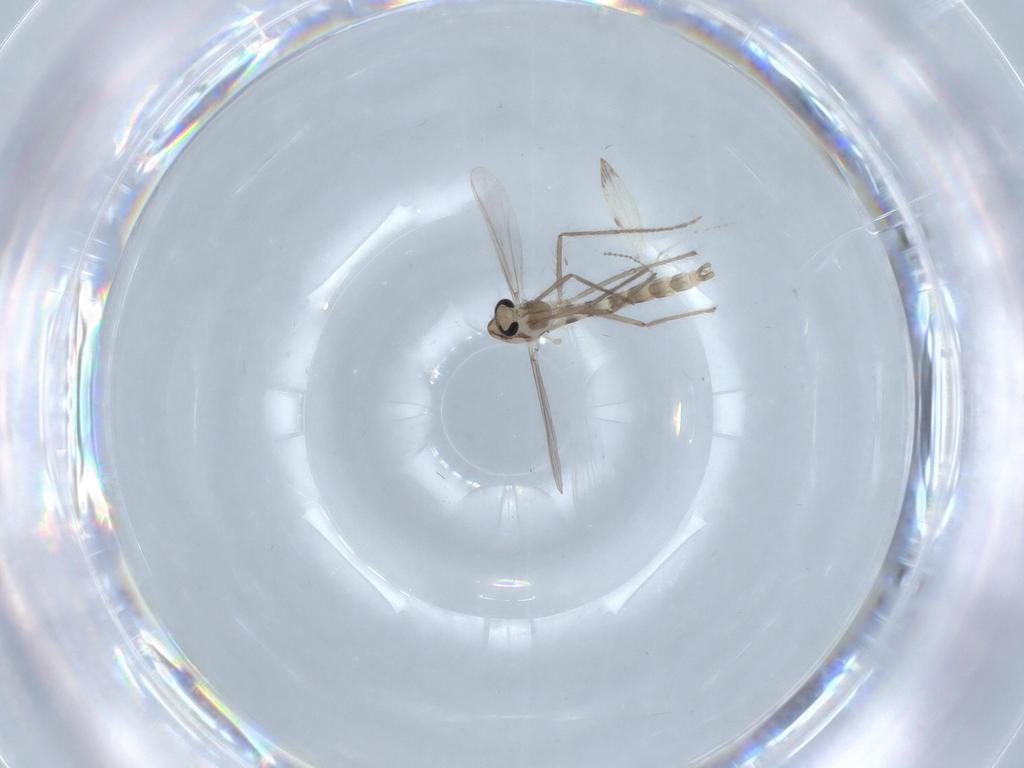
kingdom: Animalia
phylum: Arthropoda
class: Insecta
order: Diptera
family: Chironomidae
